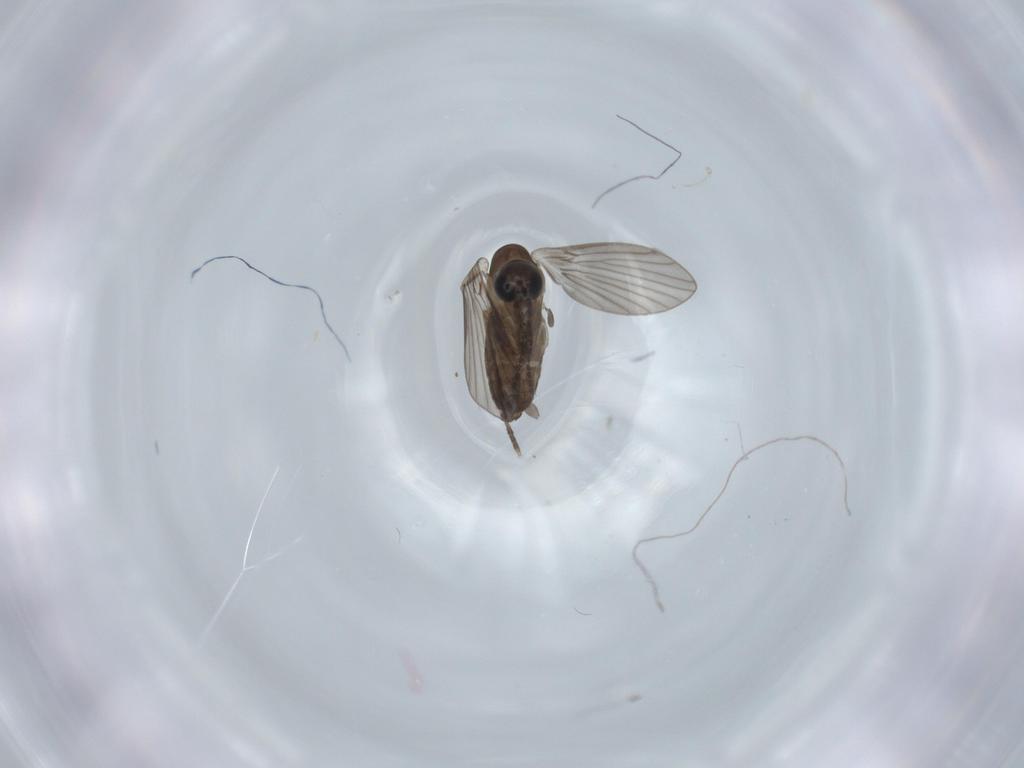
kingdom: Animalia
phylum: Arthropoda
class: Insecta
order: Diptera
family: Psychodidae
